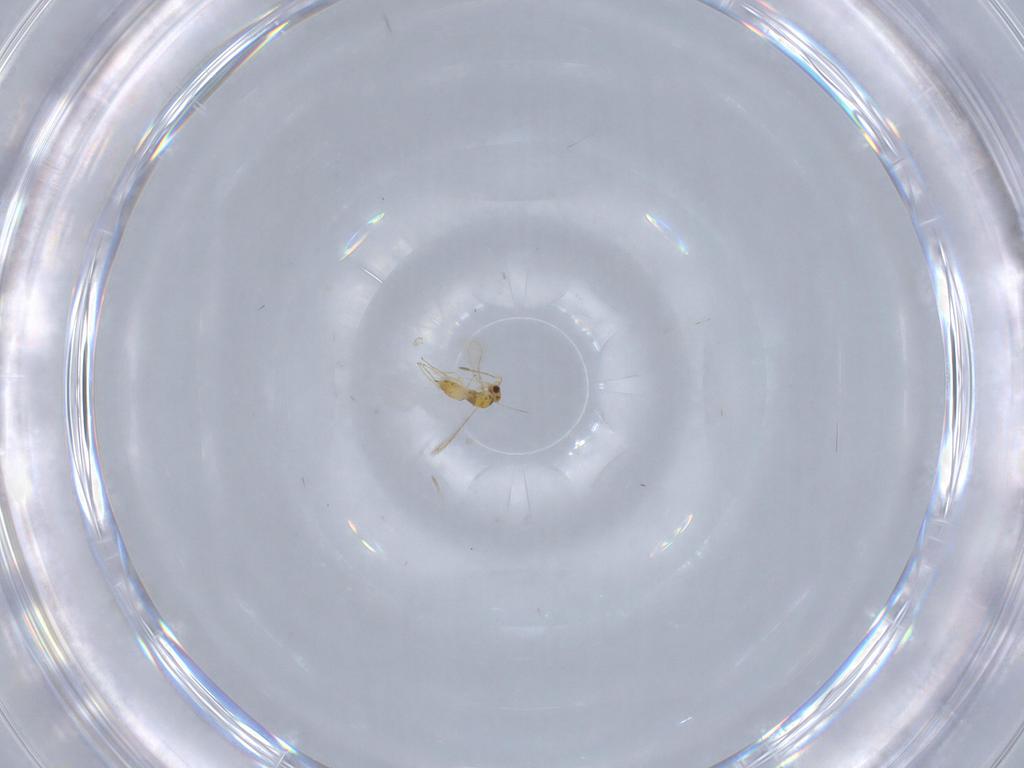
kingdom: Animalia
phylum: Arthropoda
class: Insecta
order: Hymenoptera
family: Mymaridae
